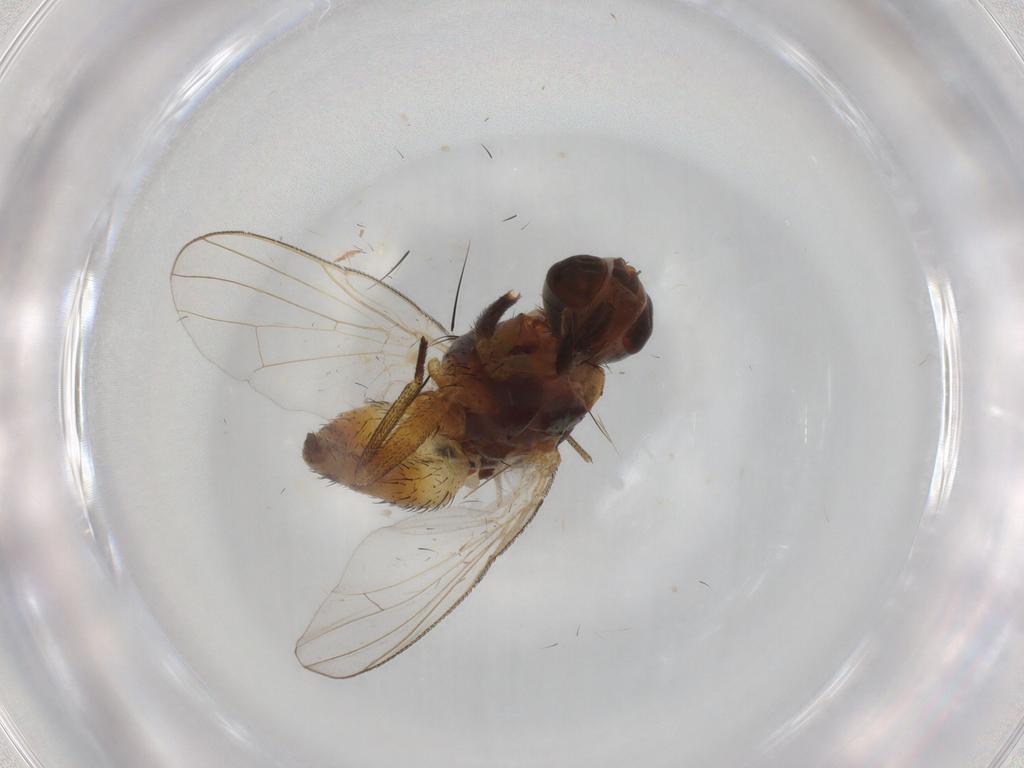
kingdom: Animalia
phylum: Arthropoda
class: Insecta
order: Diptera
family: Muscidae
